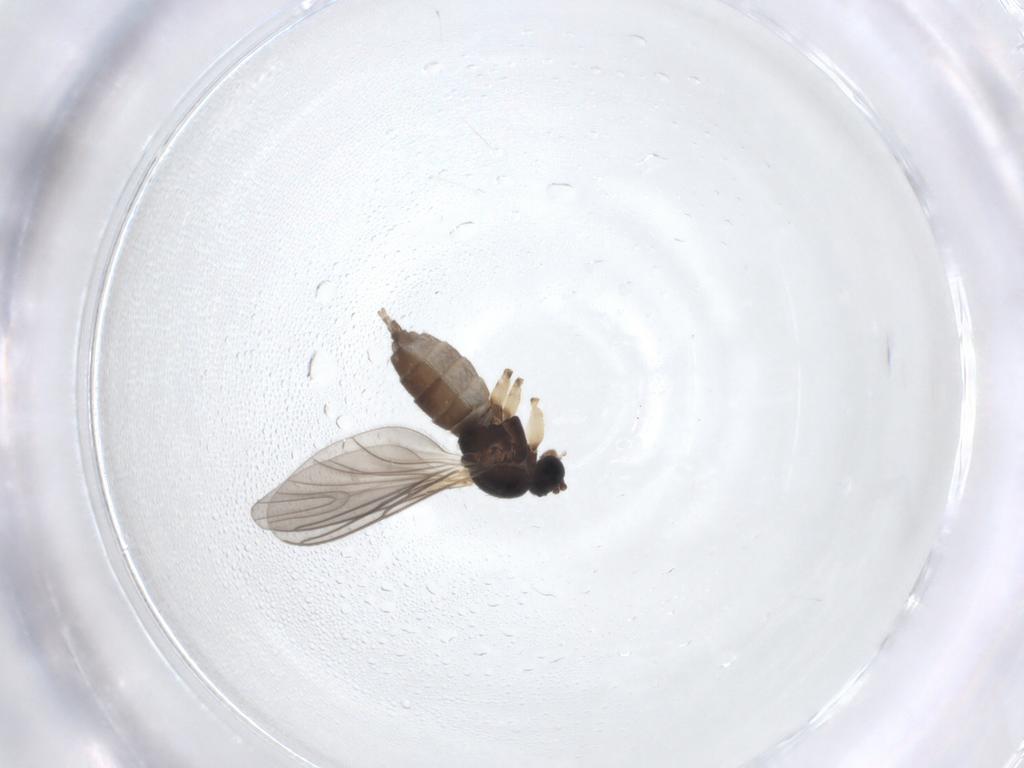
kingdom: Animalia
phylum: Arthropoda
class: Insecta
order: Diptera
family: Sciaridae
